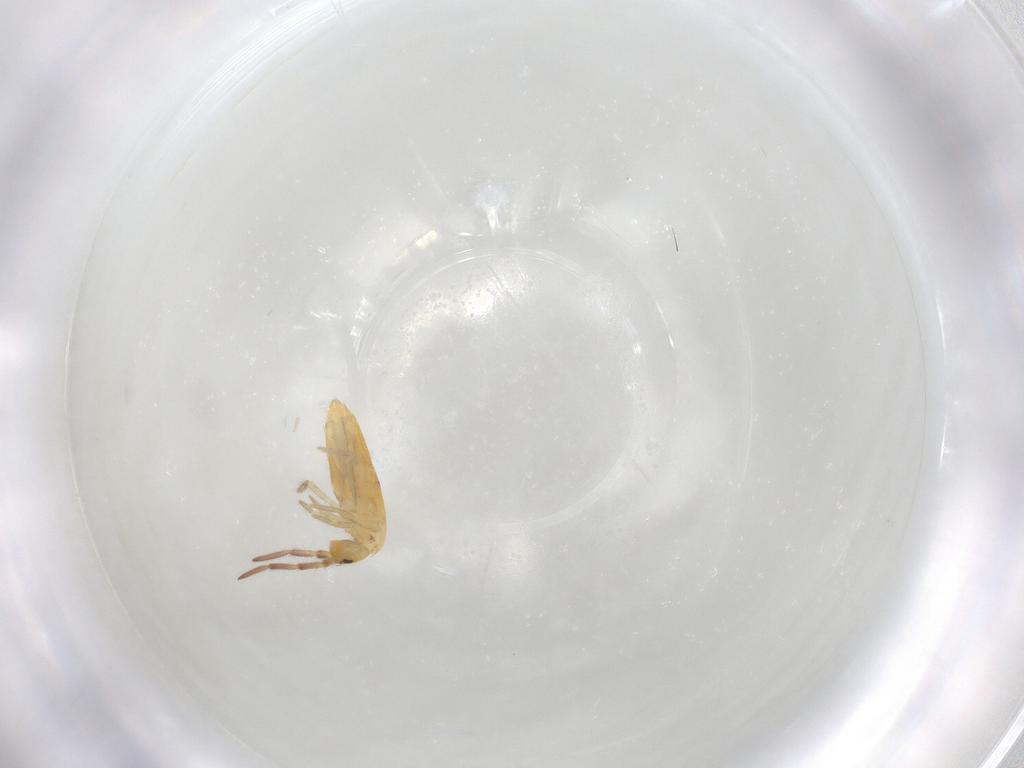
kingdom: Animalia
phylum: Arthropoda
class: Collembola
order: Entomobryomorpha
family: Entomobryidae
